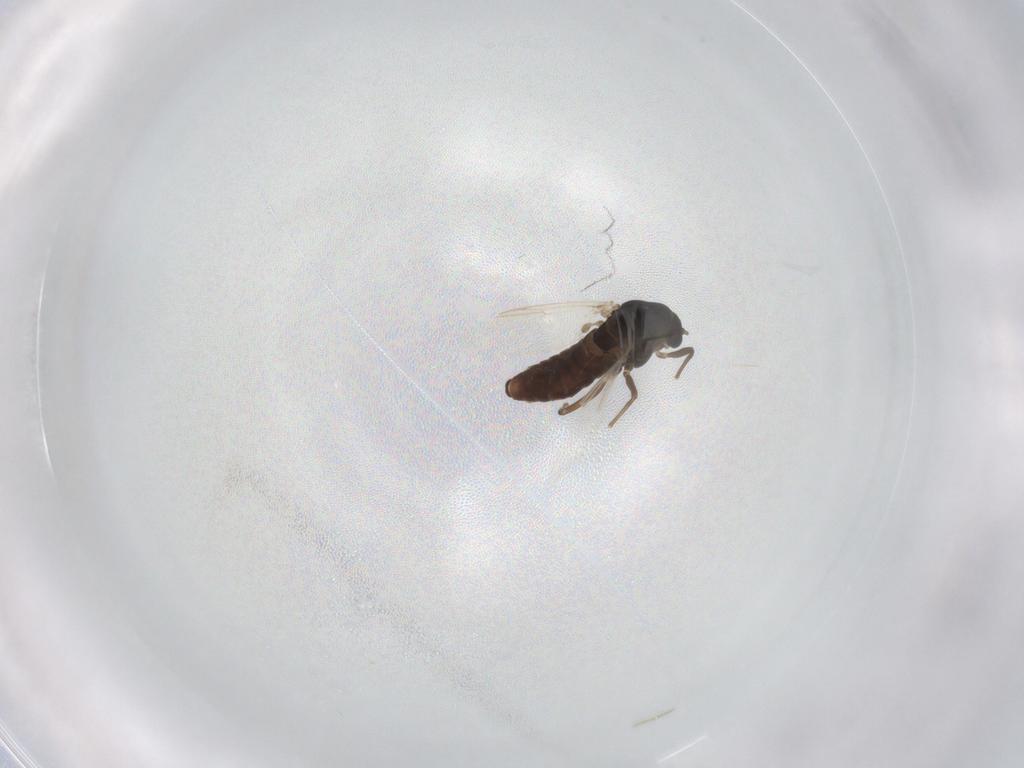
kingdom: Animalia
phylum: Arthropoda
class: Insecta
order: Diptera
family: Chironomidae
